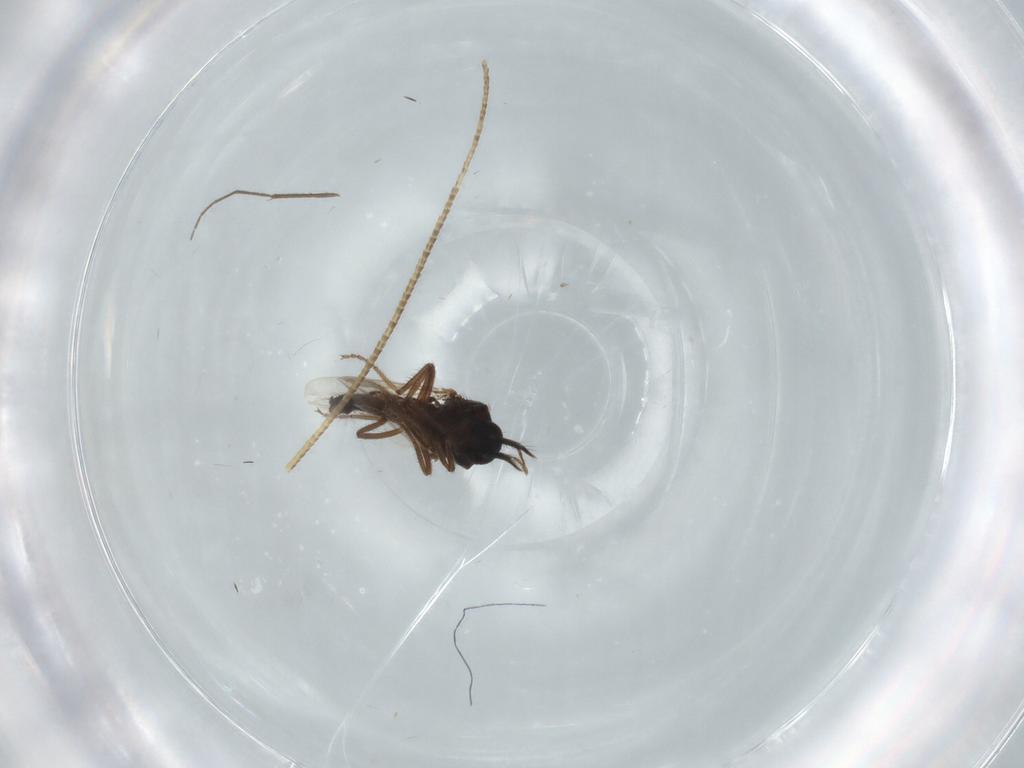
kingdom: Animalia
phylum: Arthropoda
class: Insecta
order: Diptera
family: Ceratopogonidae
